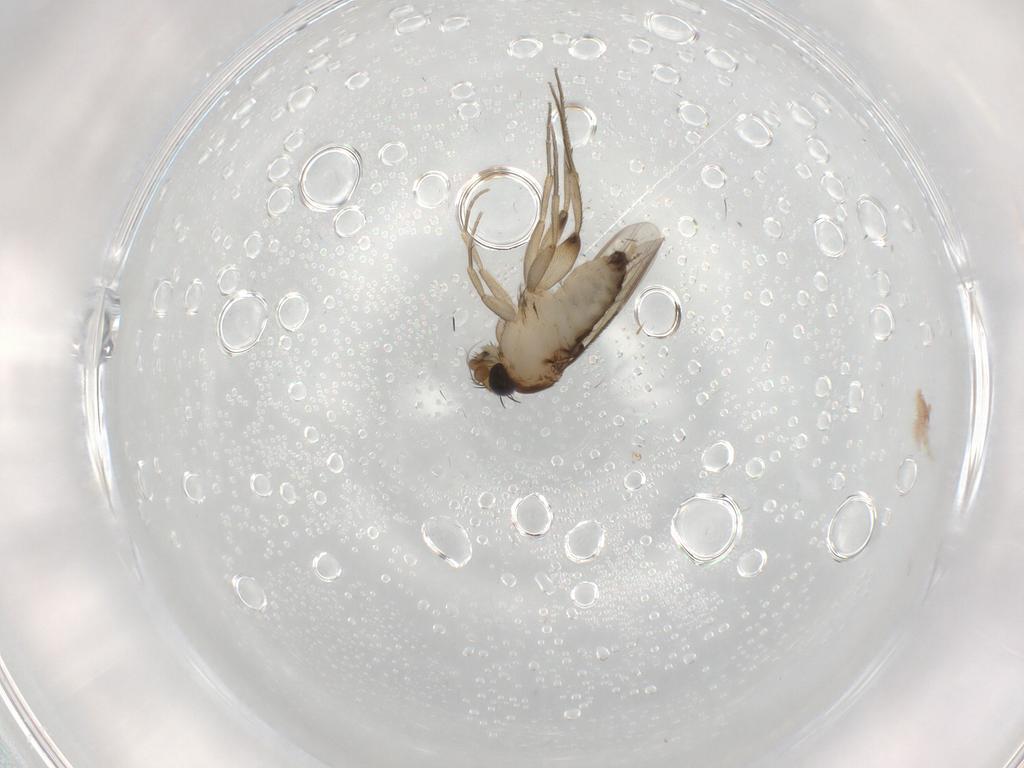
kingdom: Animalia
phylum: Arthropoda
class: Insecta
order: Diptera
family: Phoridae
